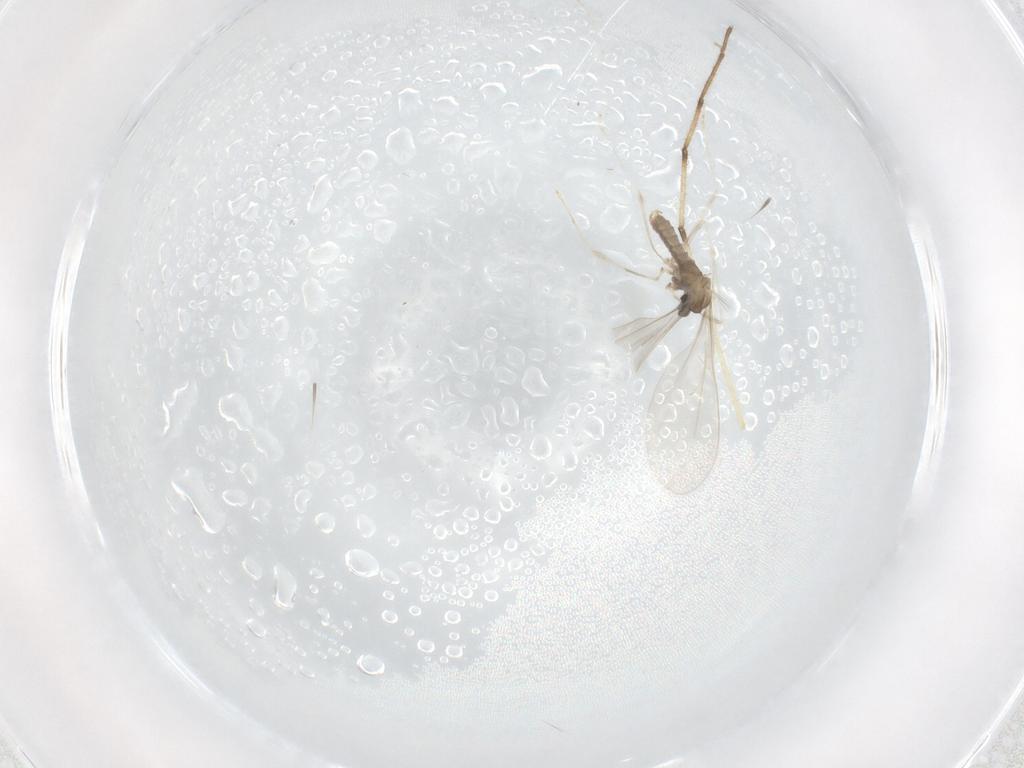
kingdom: Animalia
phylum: Arthropoda
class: Insecta
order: Diptera
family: Cecidomyiidae
